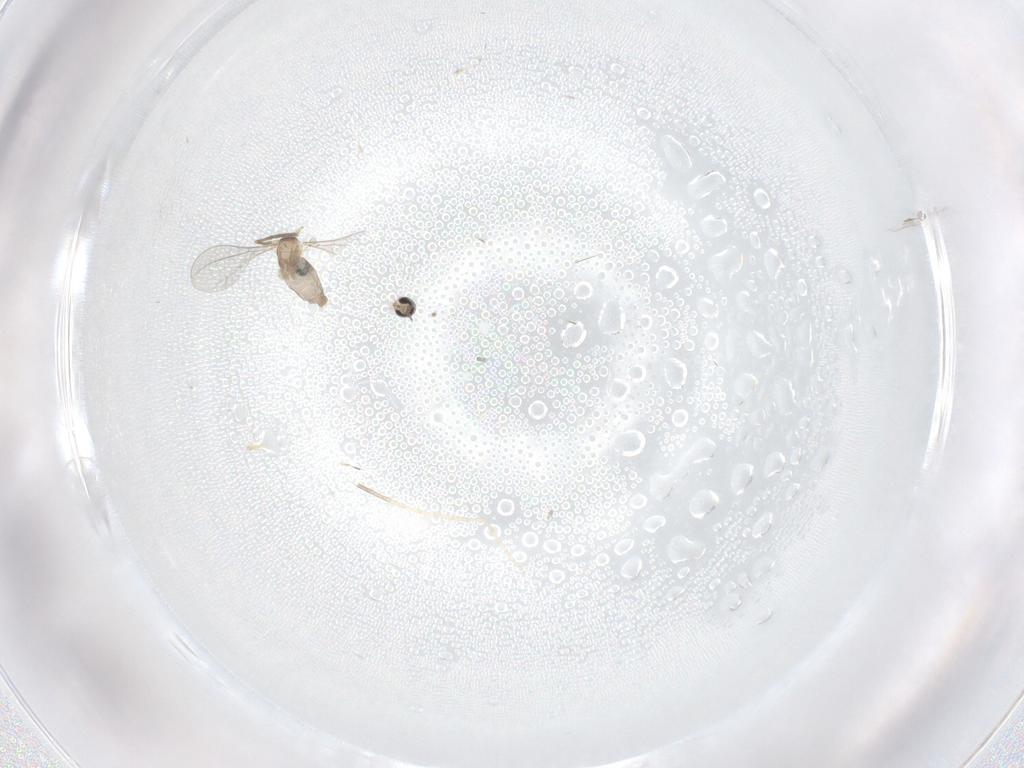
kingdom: Animalia
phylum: Arthropoda
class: Insecta
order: Diptera
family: Cecidomyiidae
